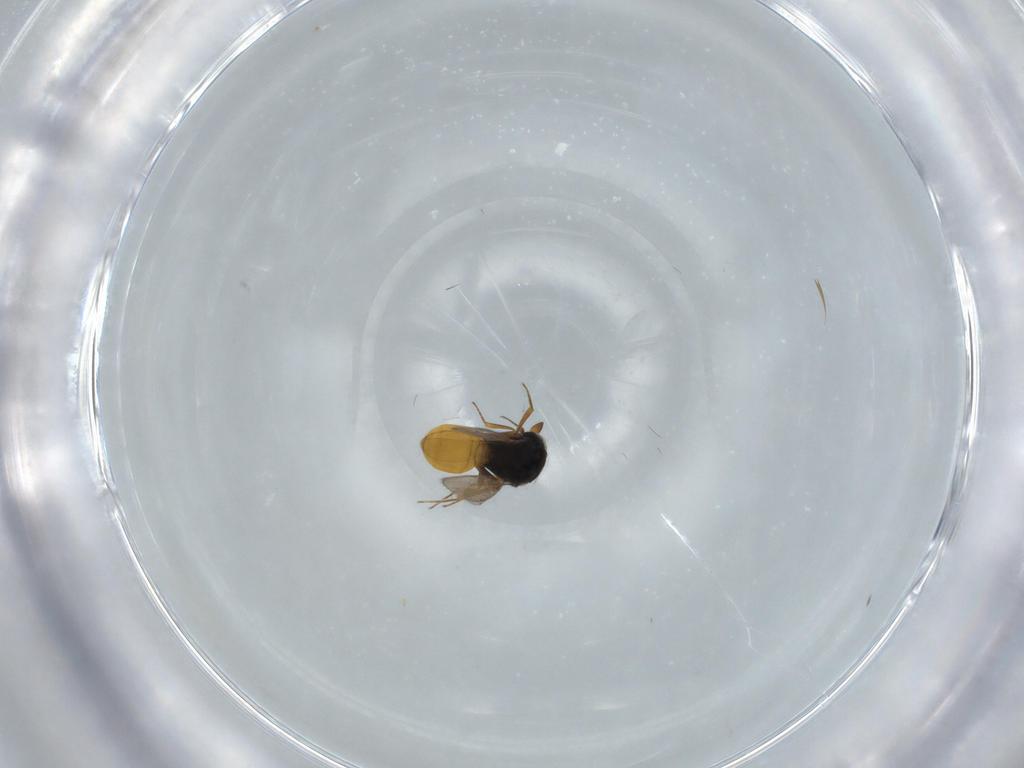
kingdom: Animalia
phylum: Arthropoda
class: Insecta
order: Hymenoptera
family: Scelionidae
